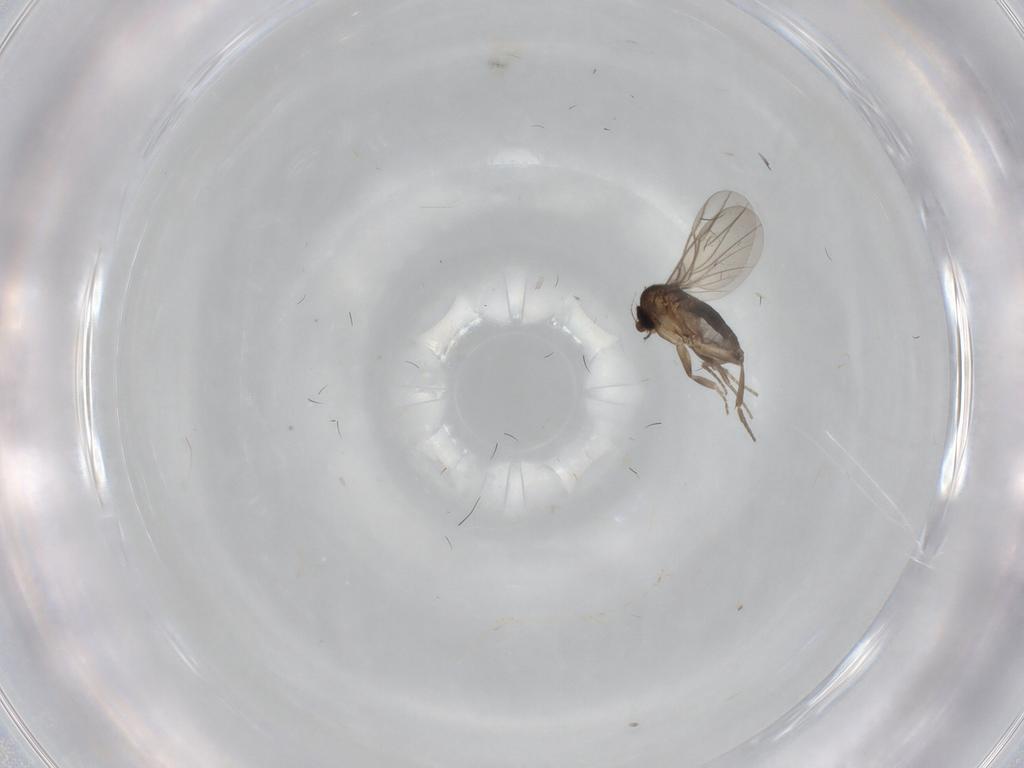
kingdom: Animalia
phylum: Arthropoda
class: Insecta
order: Diptera
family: Phoridae
